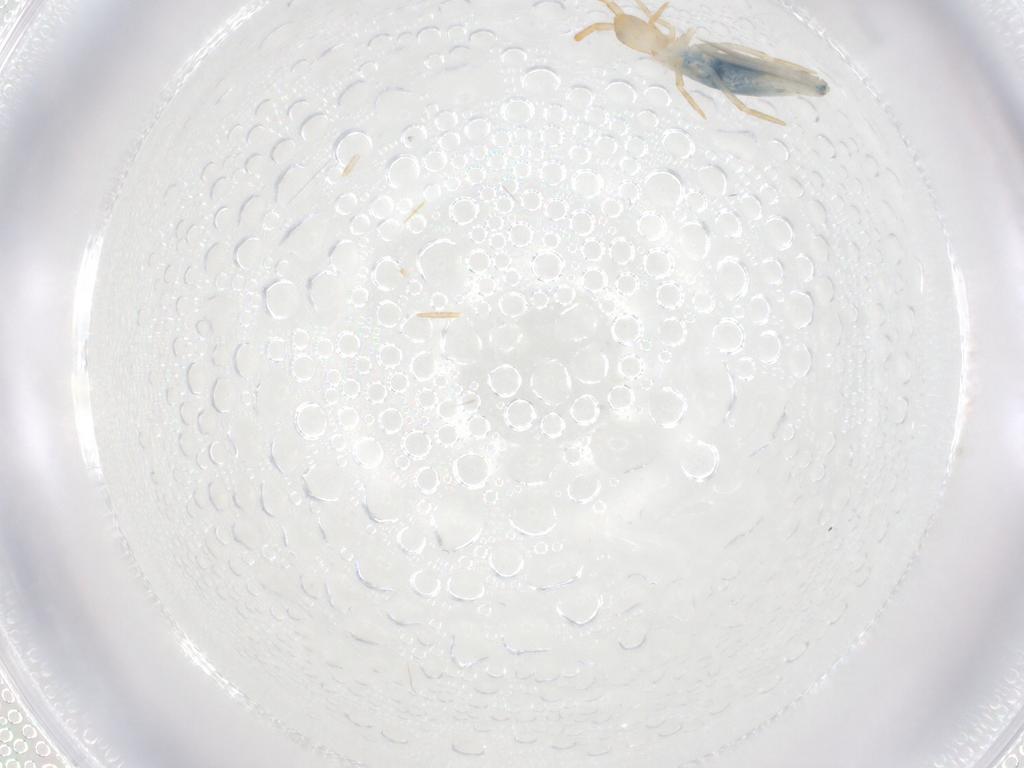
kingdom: Animalia
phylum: Arthropoda
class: Collembola
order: Entomobryomorpha
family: Entomobryidae
